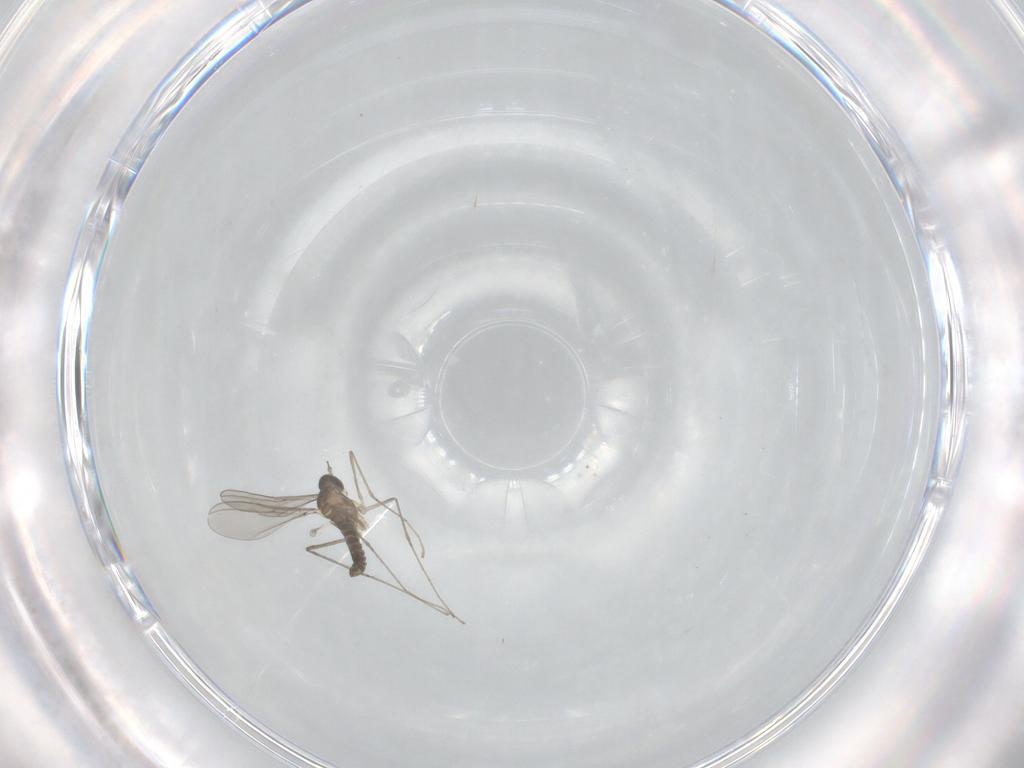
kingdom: Animalia
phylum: Arthropoda
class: Insecta
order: Diptera
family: Cecidomyiidae
